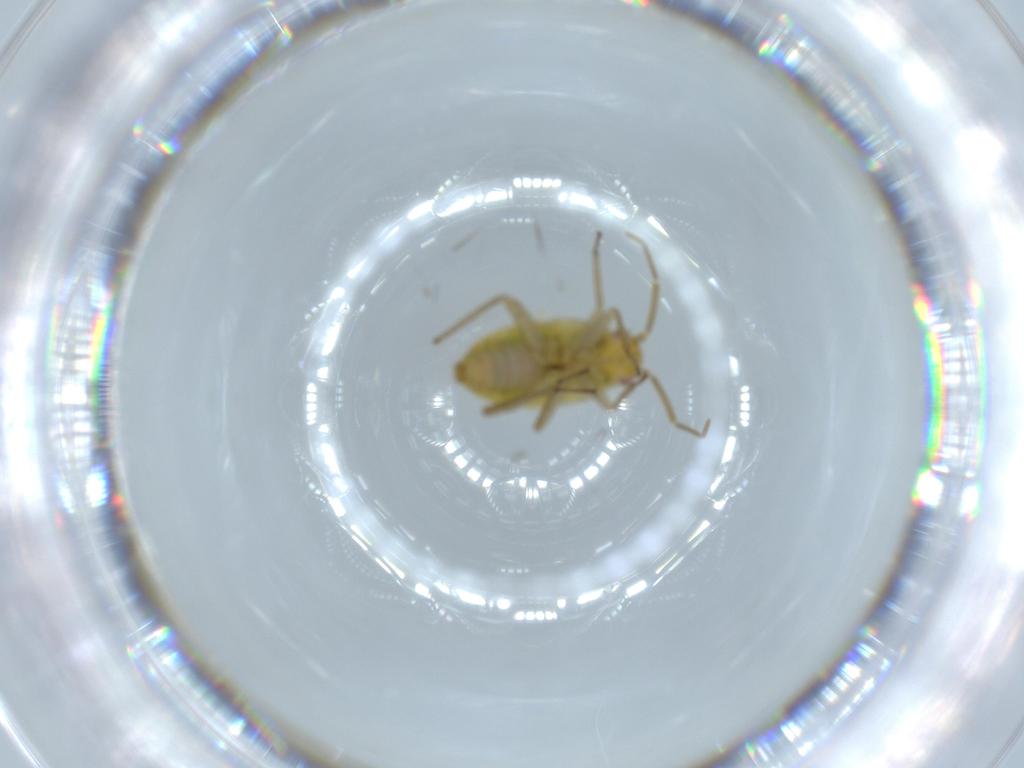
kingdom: Animalia
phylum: Arthropoda
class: Insecta
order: Hemiptera
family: Miridae
